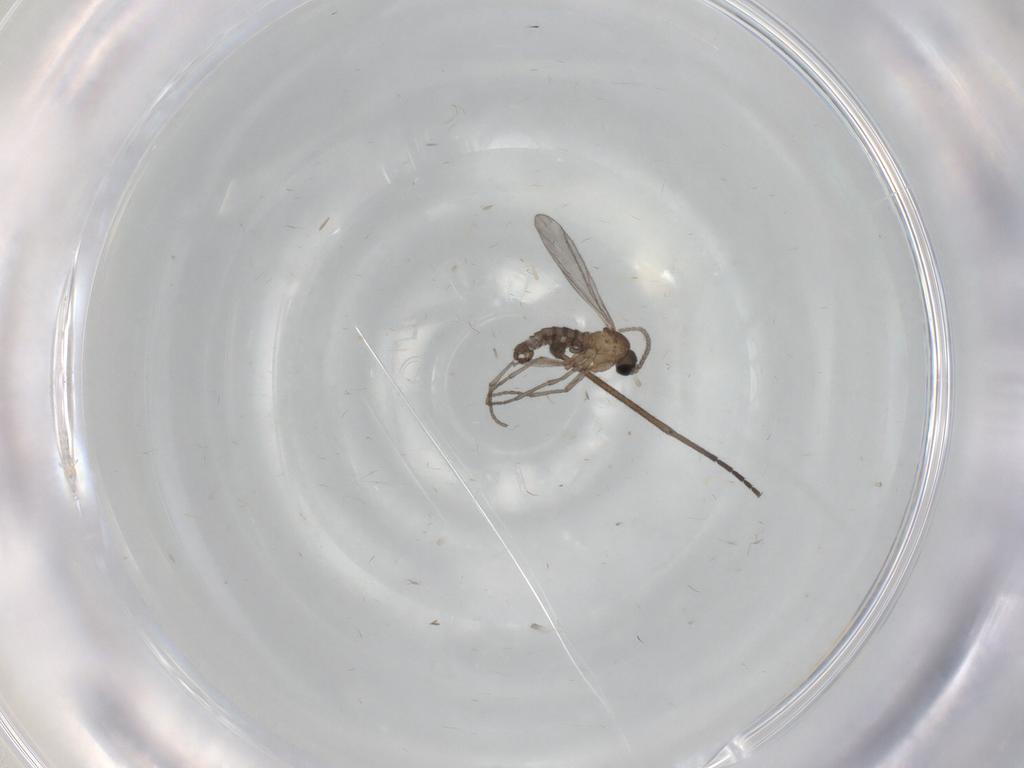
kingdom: Animalia
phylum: Arthropoda
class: Insecta
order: Diptera
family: Sciaridae
